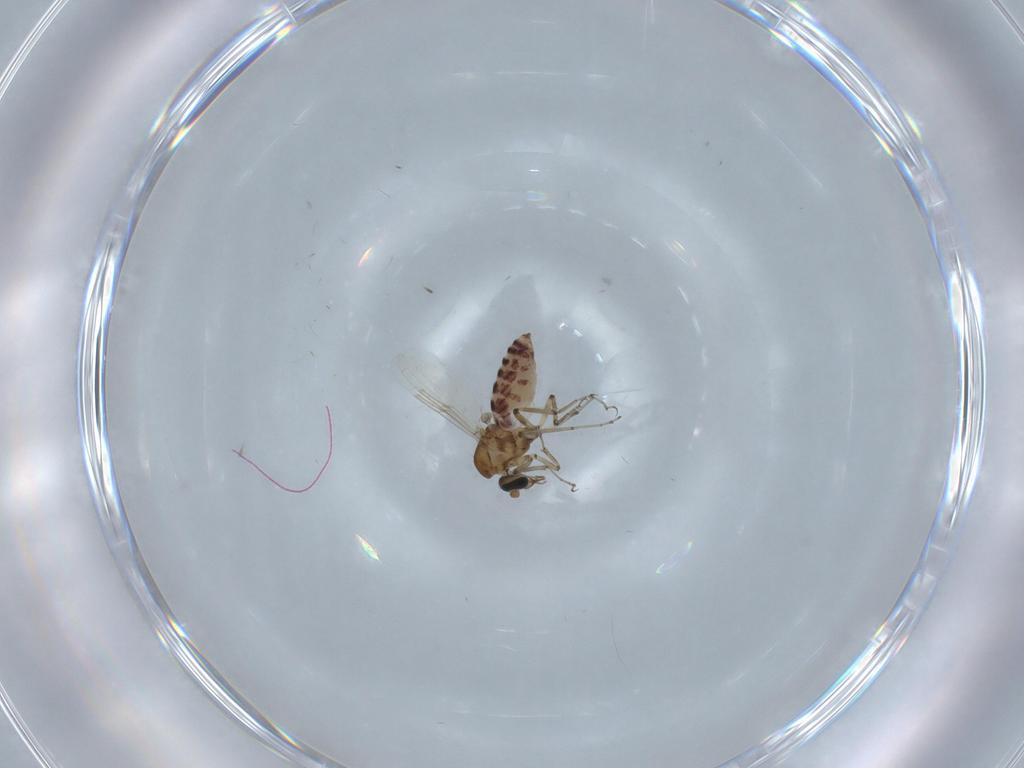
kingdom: Animalia
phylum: Arthropoda
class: Insecta
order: Diptera
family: Ceratopogonidae
